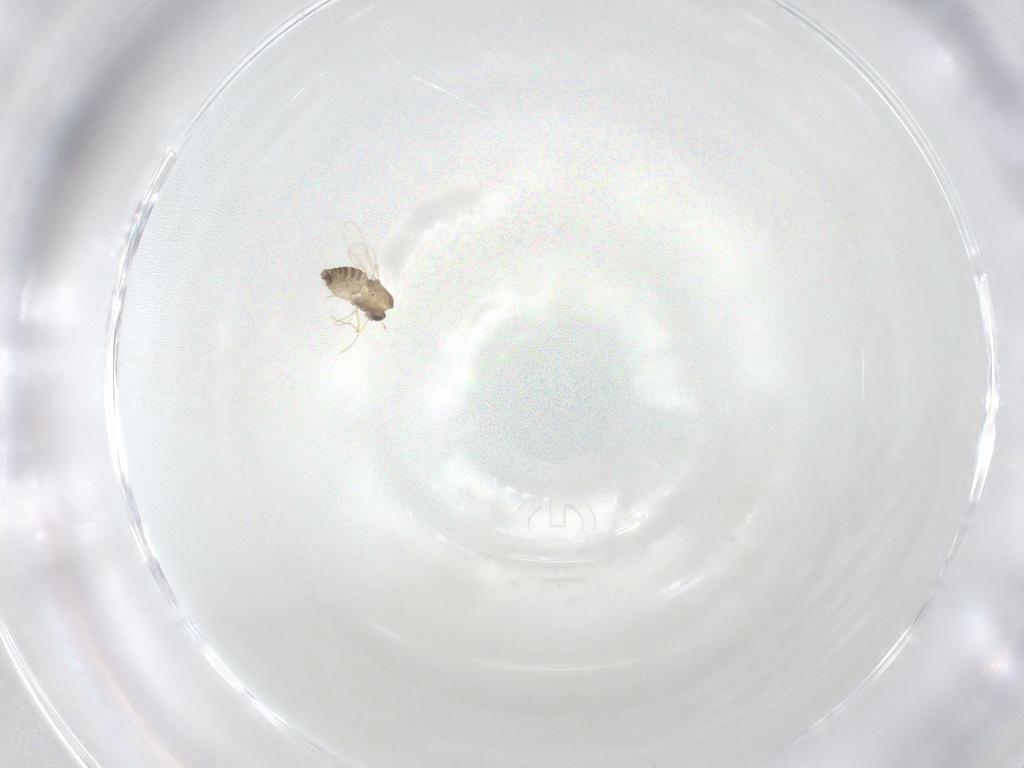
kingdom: Animalia
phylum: Arthropoda
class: Insecta
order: Diptera
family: Chironomidae
